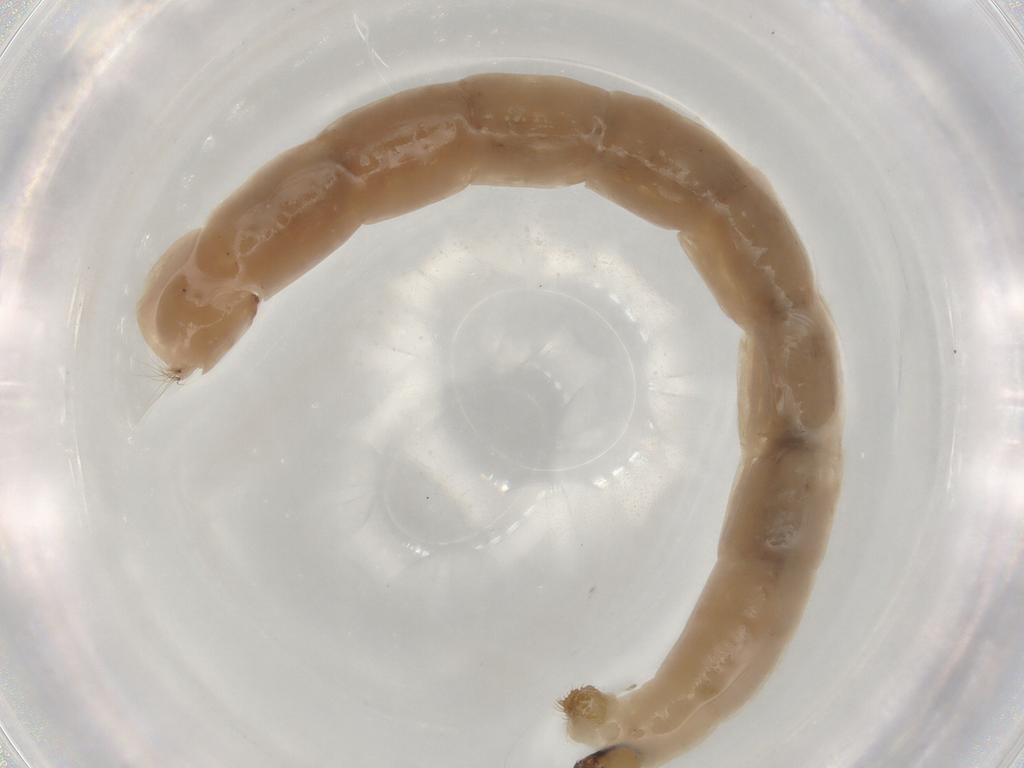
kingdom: Animalia
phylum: Arthropoda
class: Insecta
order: Diptera
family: Chironomidae
